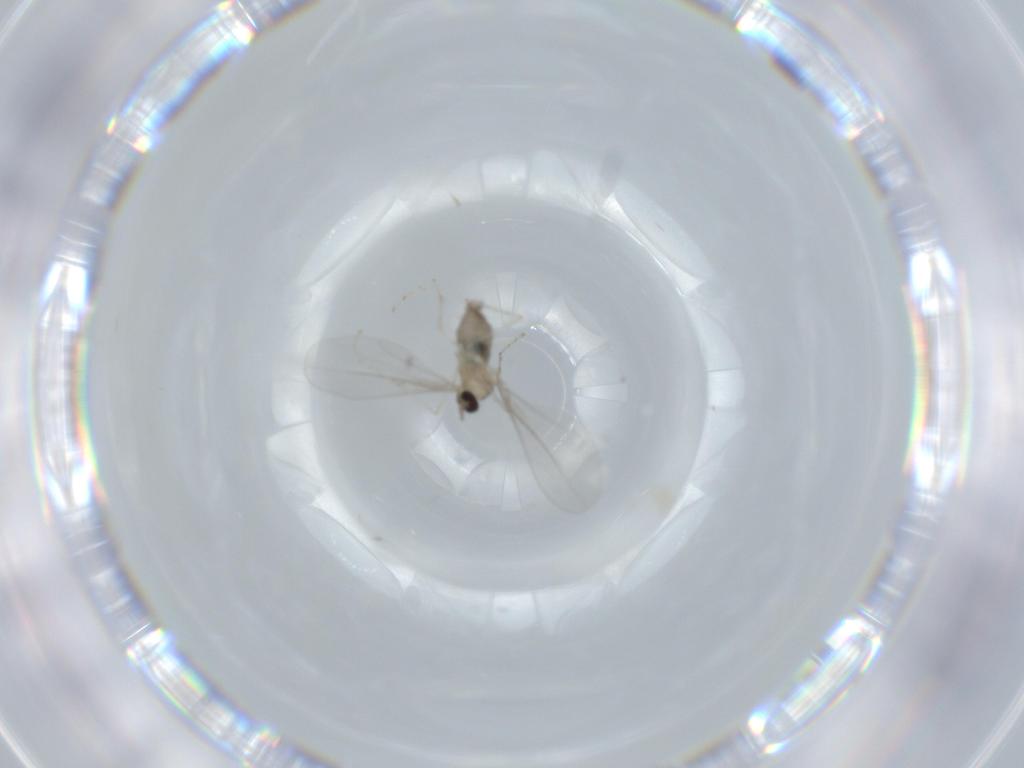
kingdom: Animalia
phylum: Arthropoda
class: Insecta
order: Diptera
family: Cecidomyiidae
